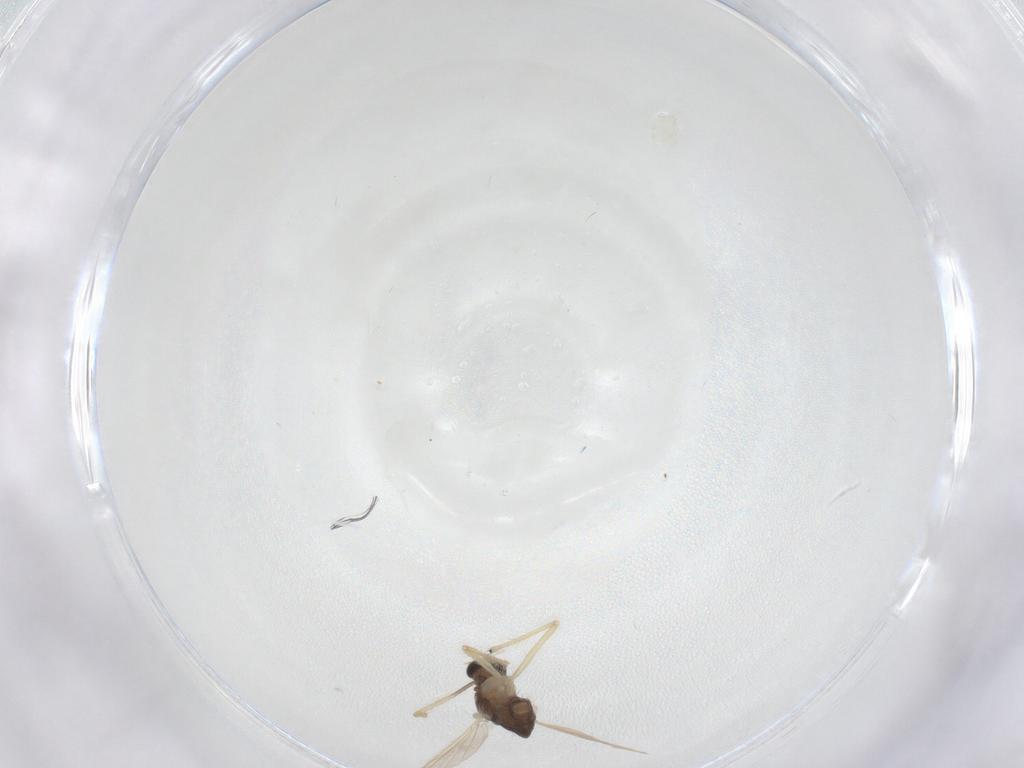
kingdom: Animalia
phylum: Arthropoda
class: Insecta
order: Diptera
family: Chironomidae
